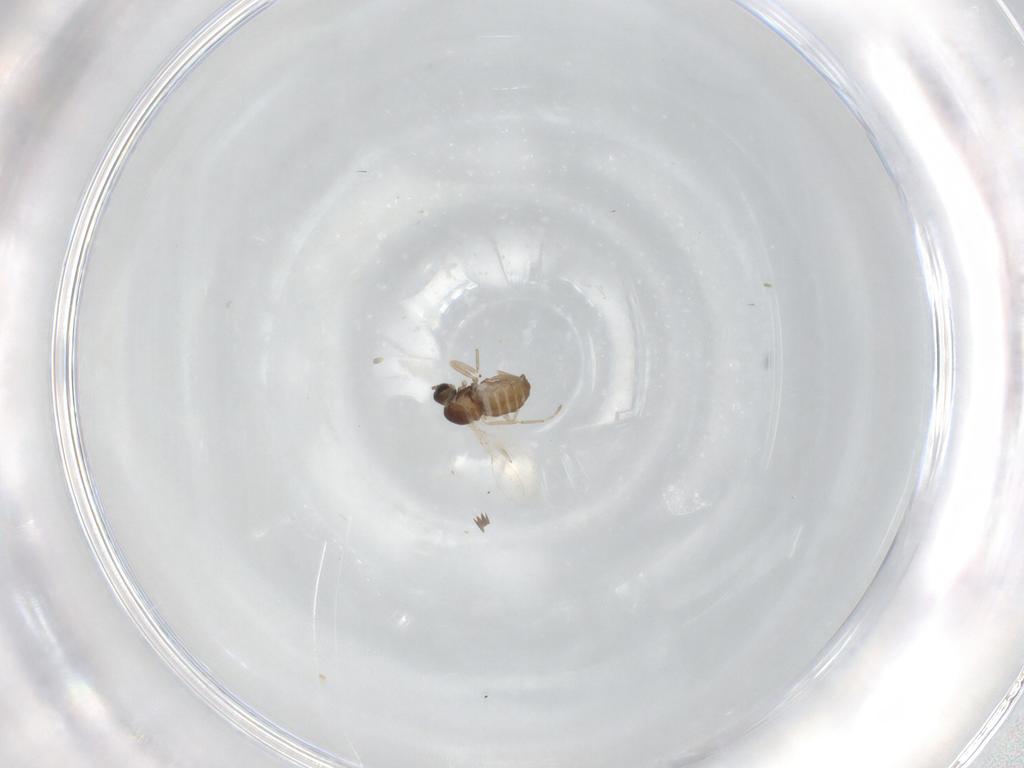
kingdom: Animalia
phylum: Arthropoda
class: Insecta
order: Diptera
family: Cecidomyiidae
